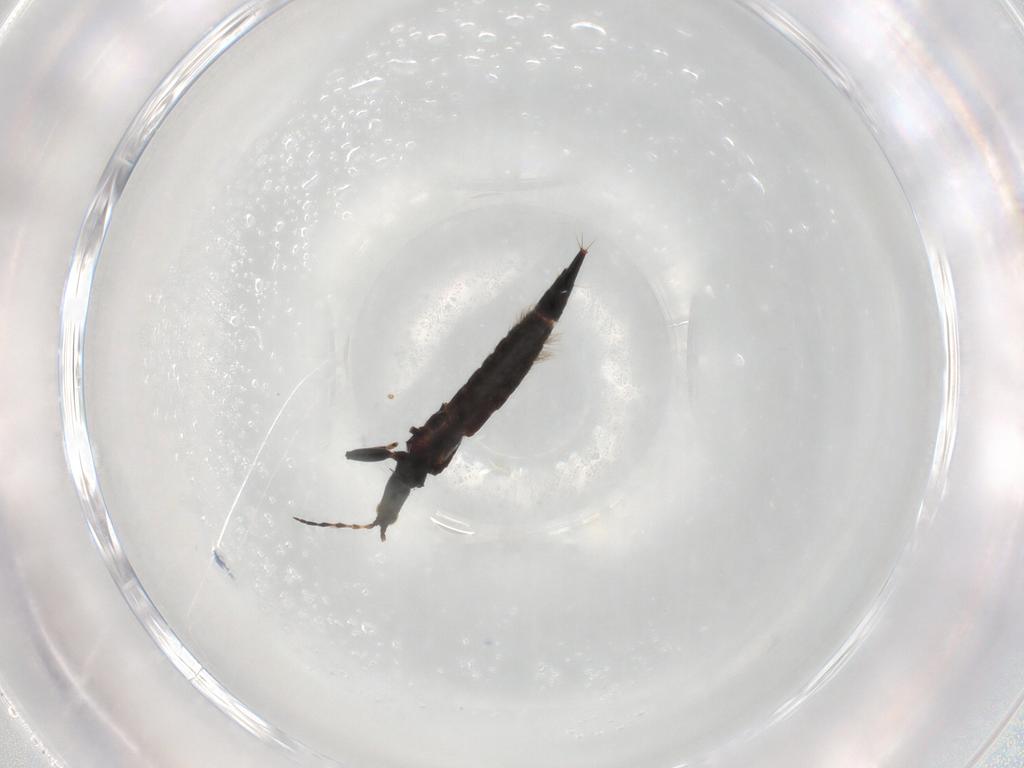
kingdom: Animalia
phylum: Arthropoda
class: Insecta
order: Thysanoptera
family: Phlaeothripidae
